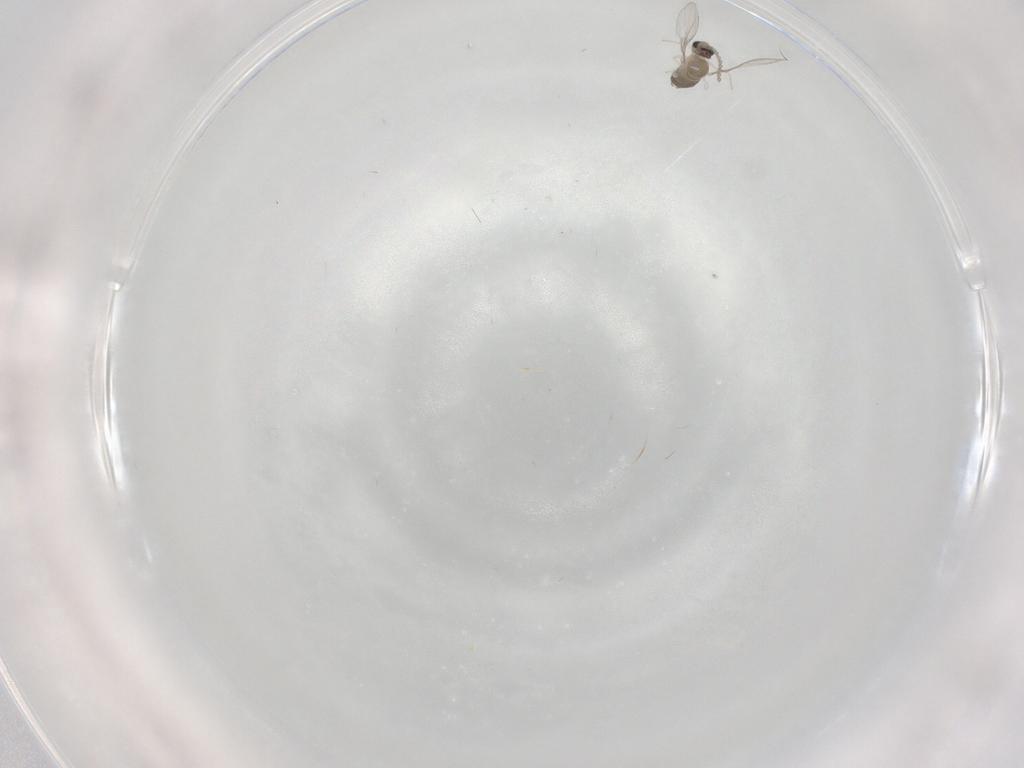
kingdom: Animalia
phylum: Arthropoda
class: Insecta
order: Diptera
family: Cecidomyiidae
